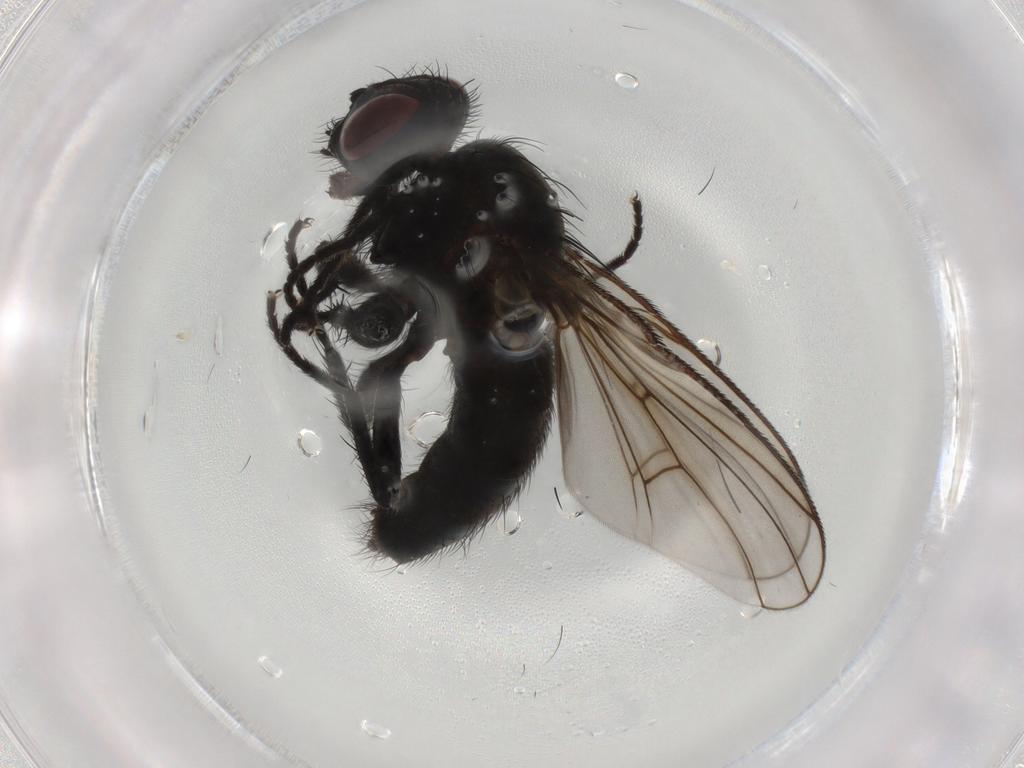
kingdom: Animalia
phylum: Arthropoda
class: Insecta
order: Diptera
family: Muscidae
